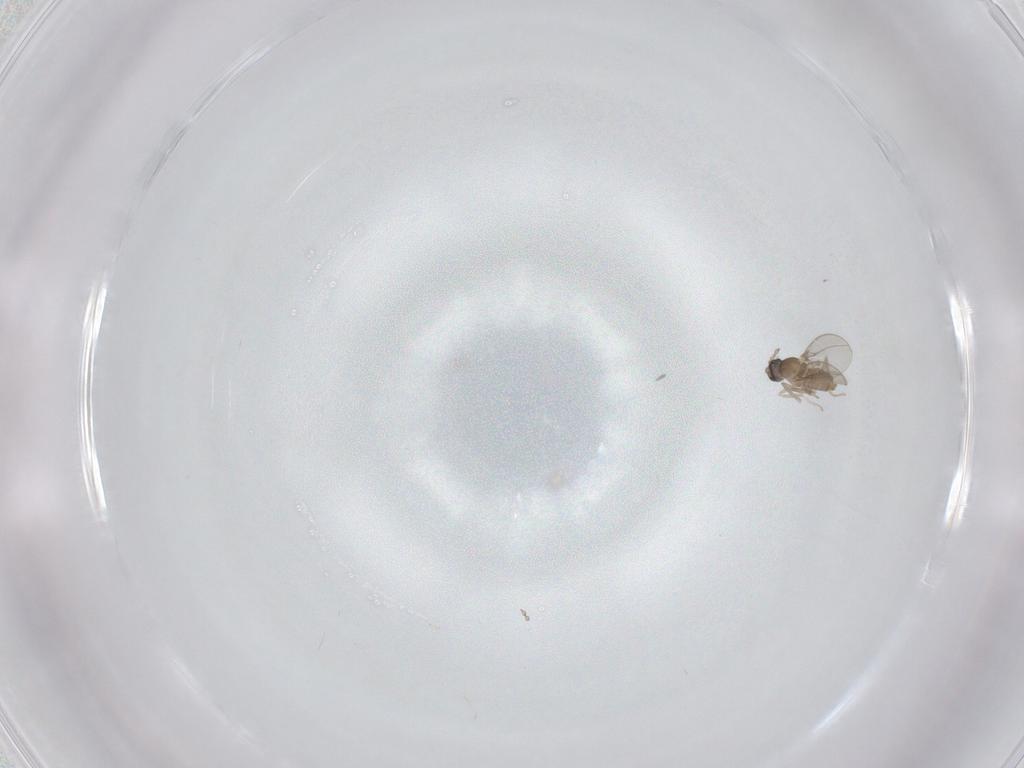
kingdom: Animalia
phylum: Arthropoda
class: Insecta
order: Diptera
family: Cecidomyiidae
